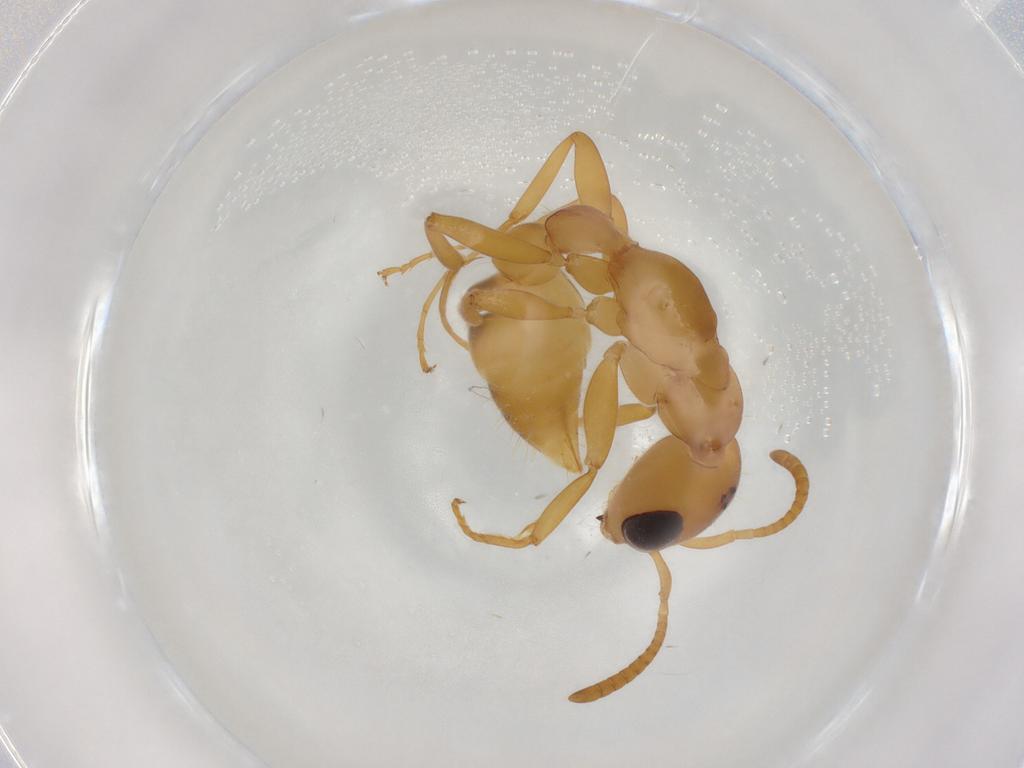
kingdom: Animalia
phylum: Arthropoda
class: Insecta
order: Hymenoptera
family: Formicidae
